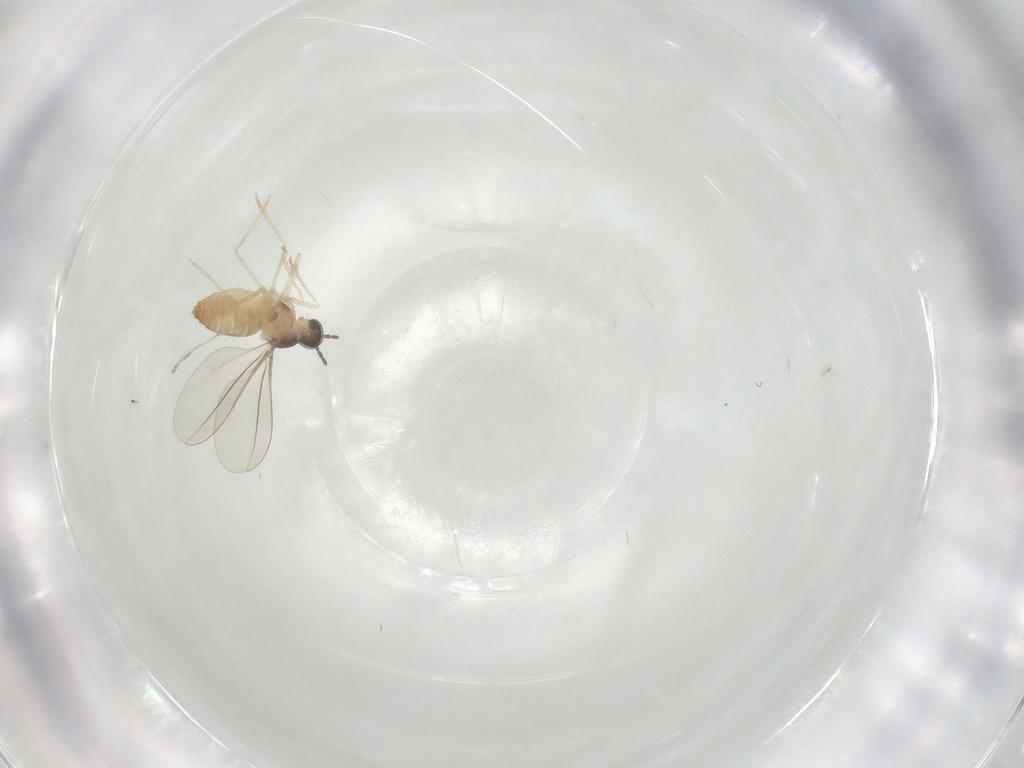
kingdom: Animalia
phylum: Arthropoda
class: Insecta
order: Diptera
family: Cecidomyiidae
